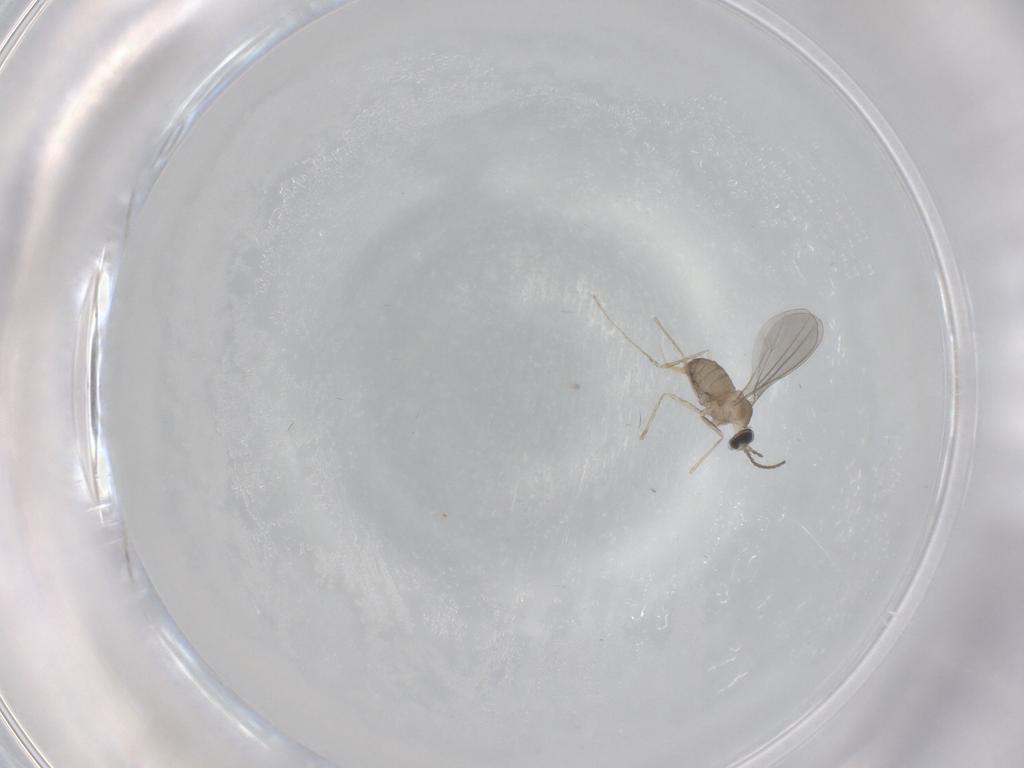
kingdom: Animalia
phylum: Arthropoda
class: Insecta
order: Diptera
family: Cecidomyiidae
